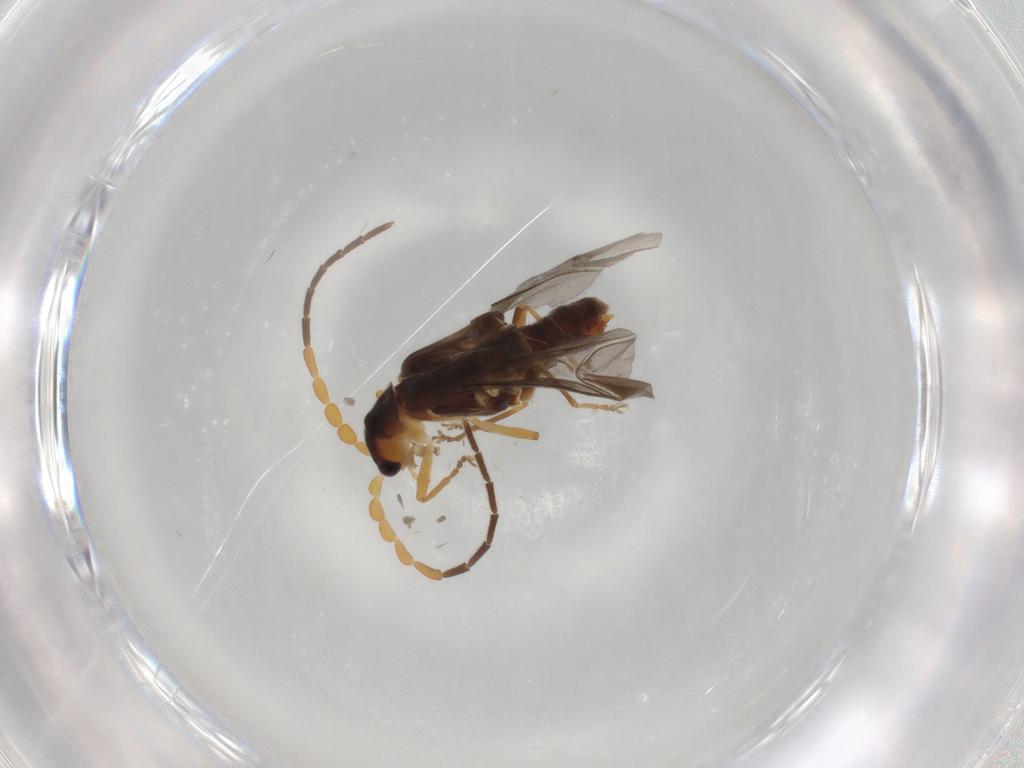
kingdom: Animalia
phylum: Arthropoda
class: Insecta
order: Coleoptera
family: Cantharidae
